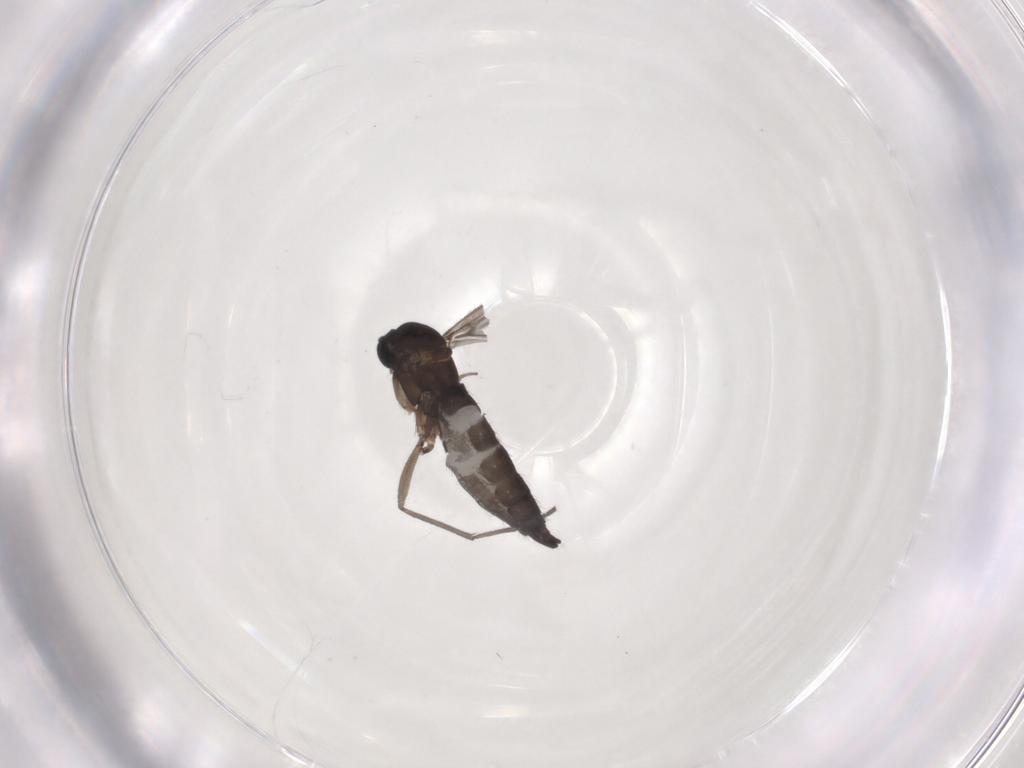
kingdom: Animalia
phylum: Arthropoda
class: Insecta
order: Diptera
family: Sciaridae
